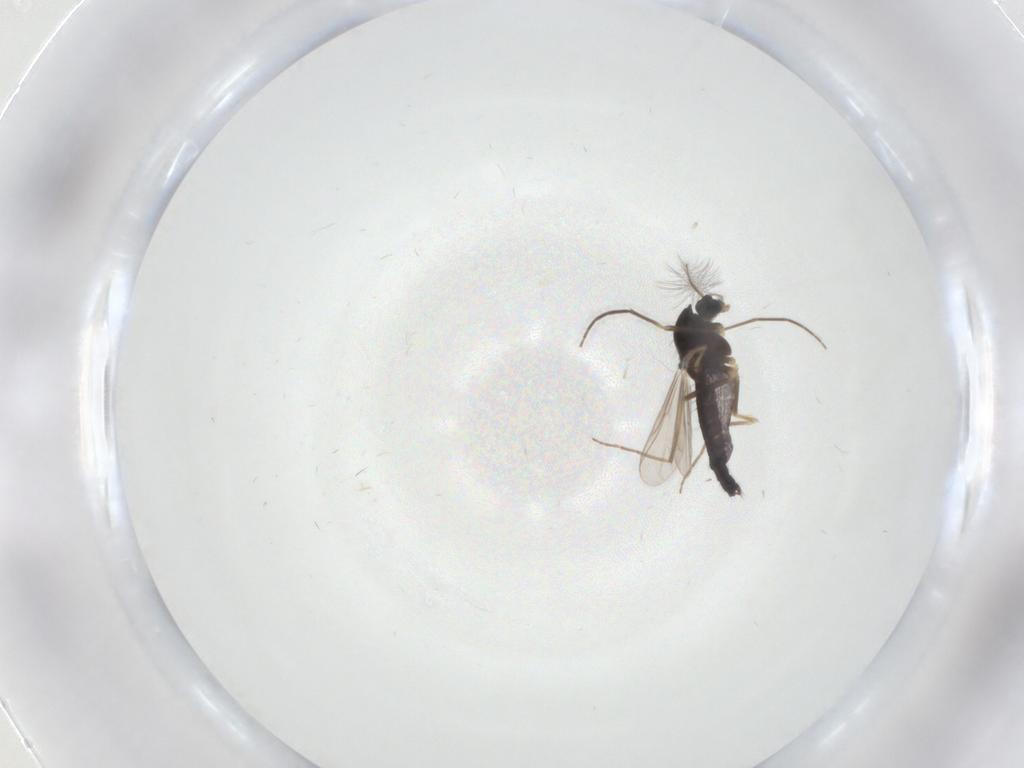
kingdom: Animalia
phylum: Arthropoda
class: Insecta
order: Diptera
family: Chironomidae
